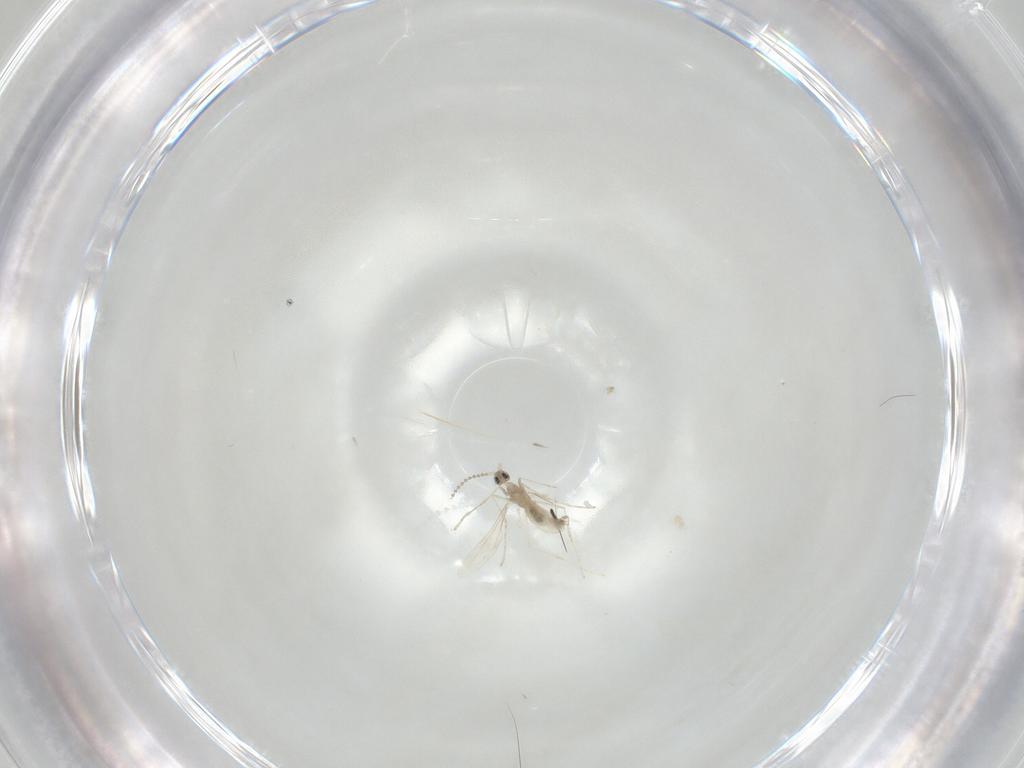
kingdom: Animalia
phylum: Arthropoda
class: Insecta
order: Diptera
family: Cecidomyiidae
